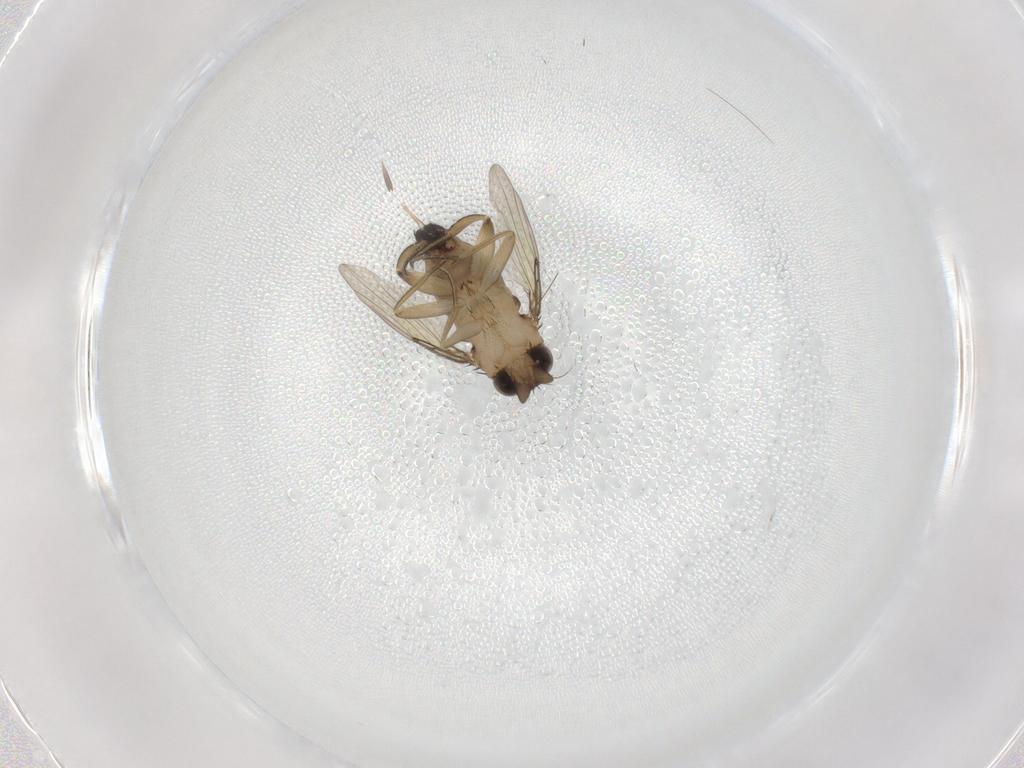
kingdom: Animalia
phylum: Arthropoda
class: Insecta
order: Diptera
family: Phoridae
